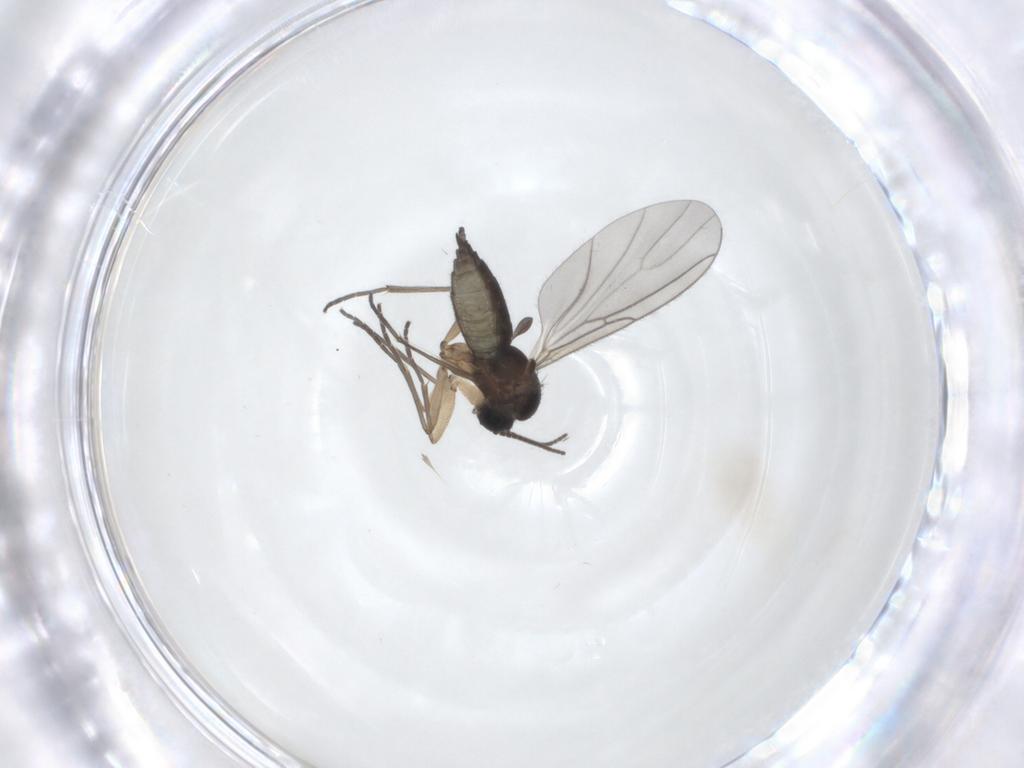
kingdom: Animalia
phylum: Arthropoda
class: Insecta
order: Diptera
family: Sciaridae
